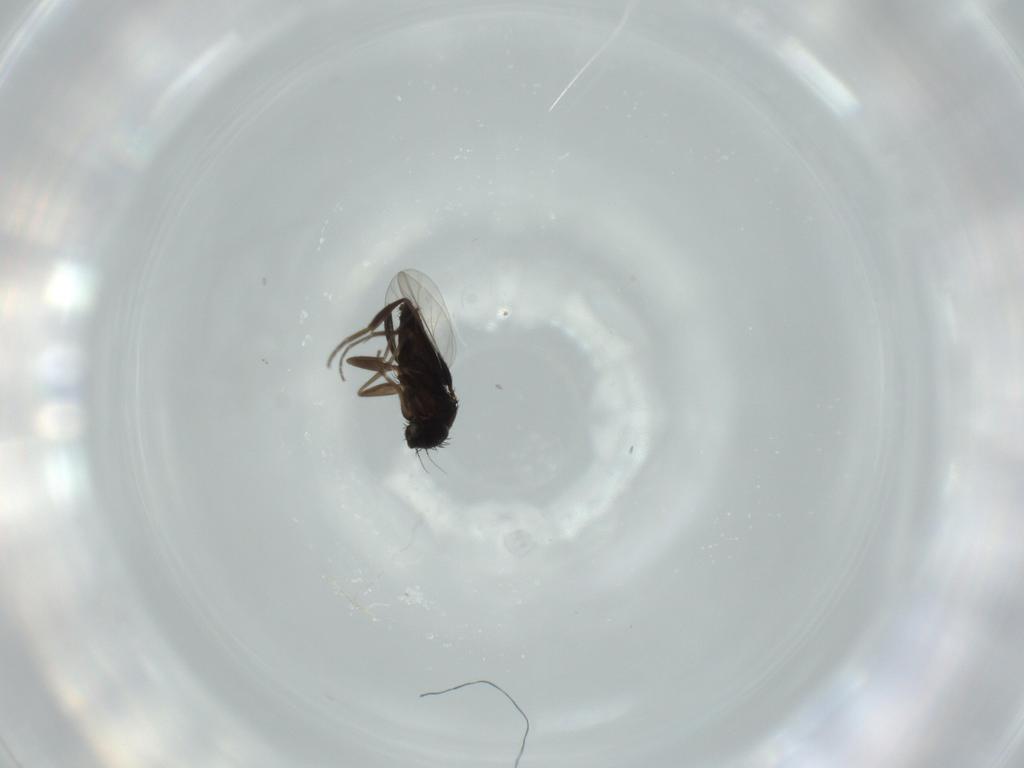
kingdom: Animalia
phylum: Arthropoda
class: Insecta
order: Diptera
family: Phoridae
